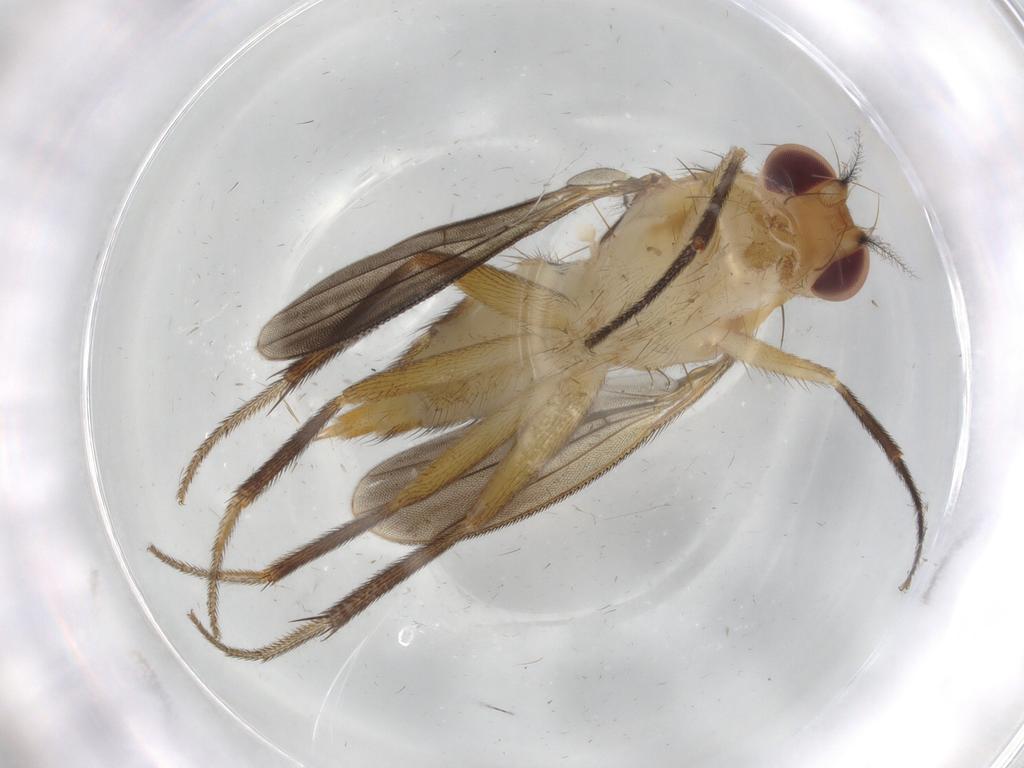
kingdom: Animalia
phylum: Arthropoda
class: Insecta
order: Diptera
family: Clusiidae
